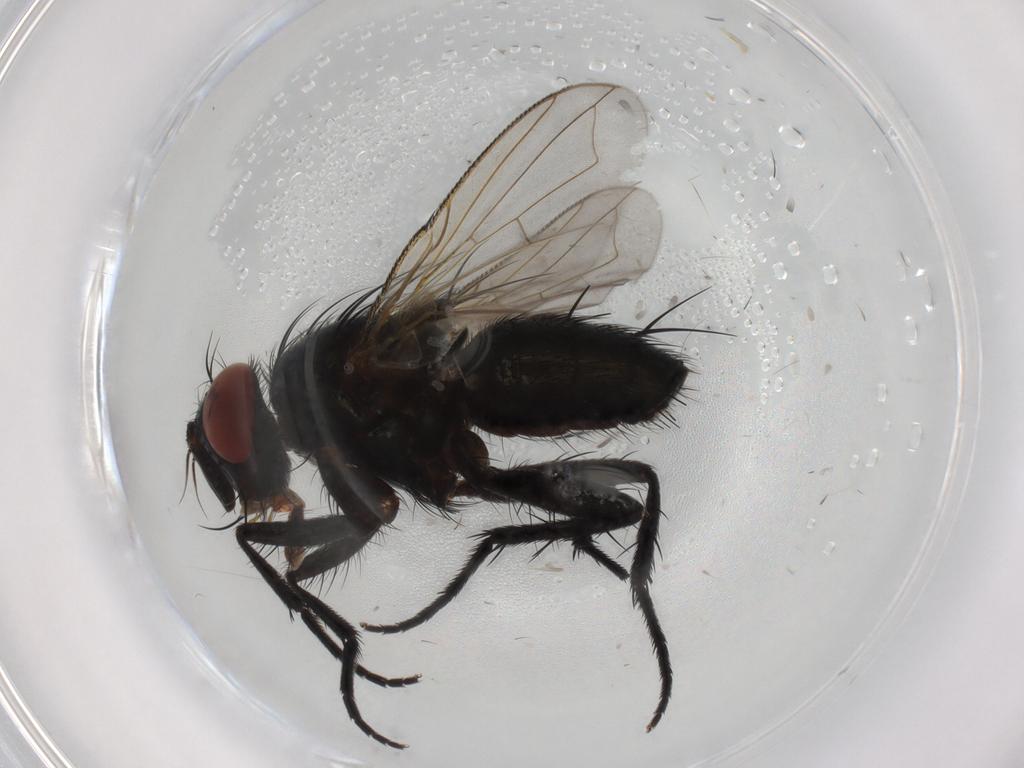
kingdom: Animalia
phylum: Arthropoda
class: Insecta
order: Diptera
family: Tachinidae
